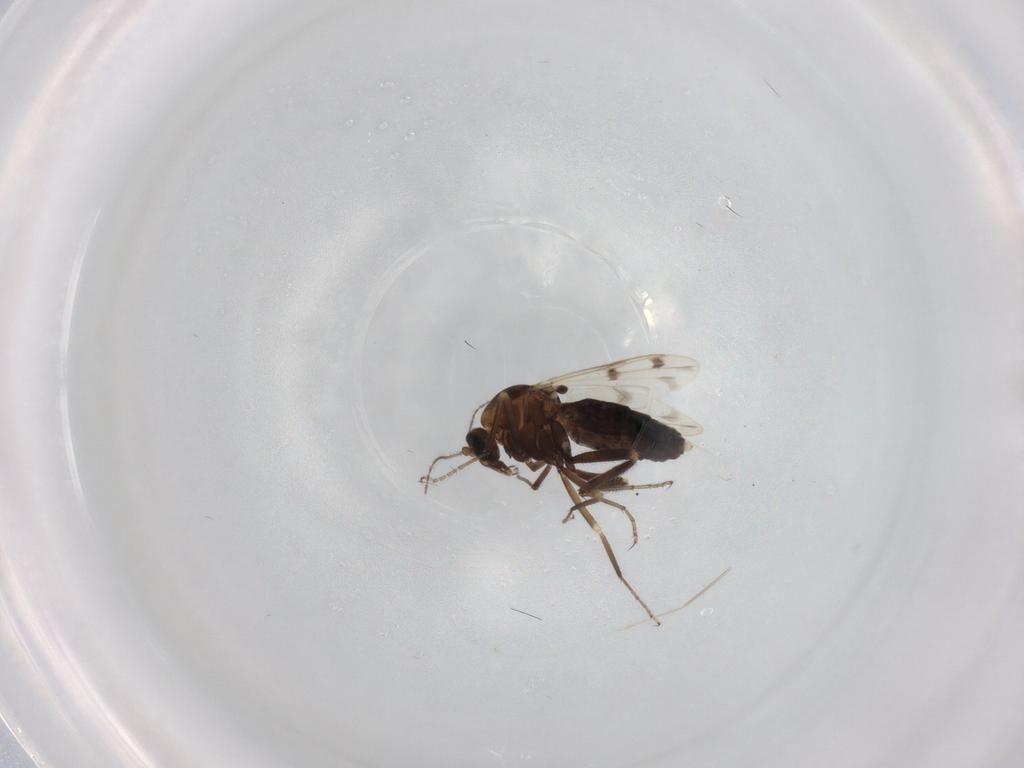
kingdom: Animalia
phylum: Arthropoda
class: Insecta
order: Diptera
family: Ceratopogonidae
